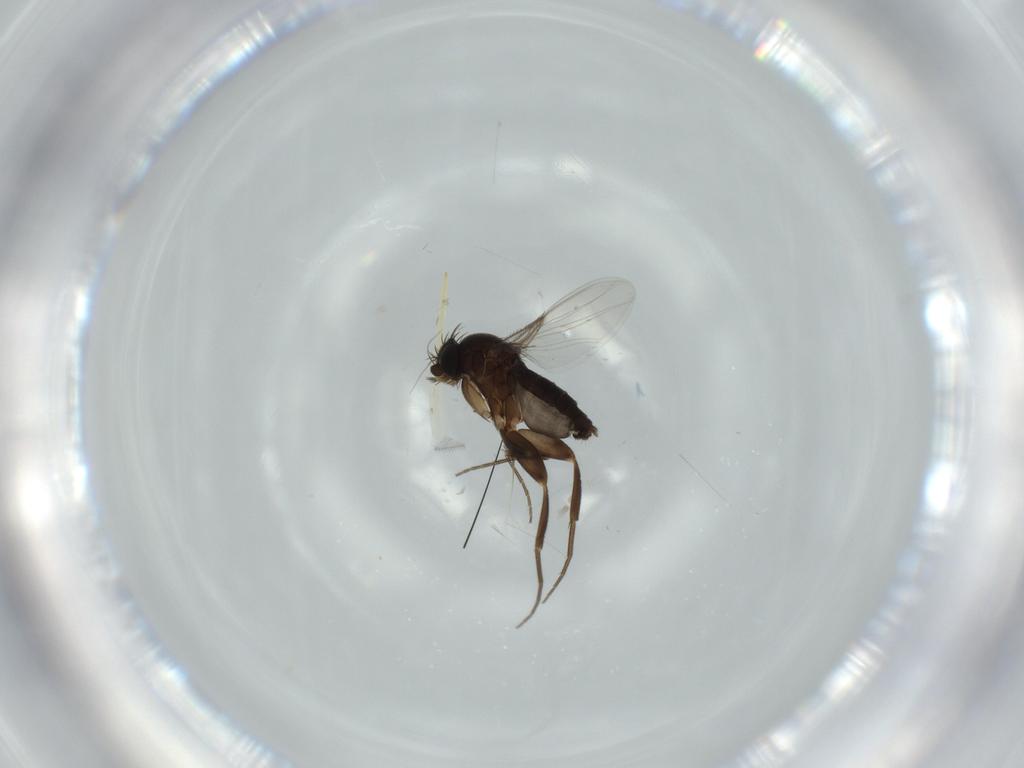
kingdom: Animalia
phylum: Arthropoda
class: Insecta
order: Diptera
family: Phoridae
